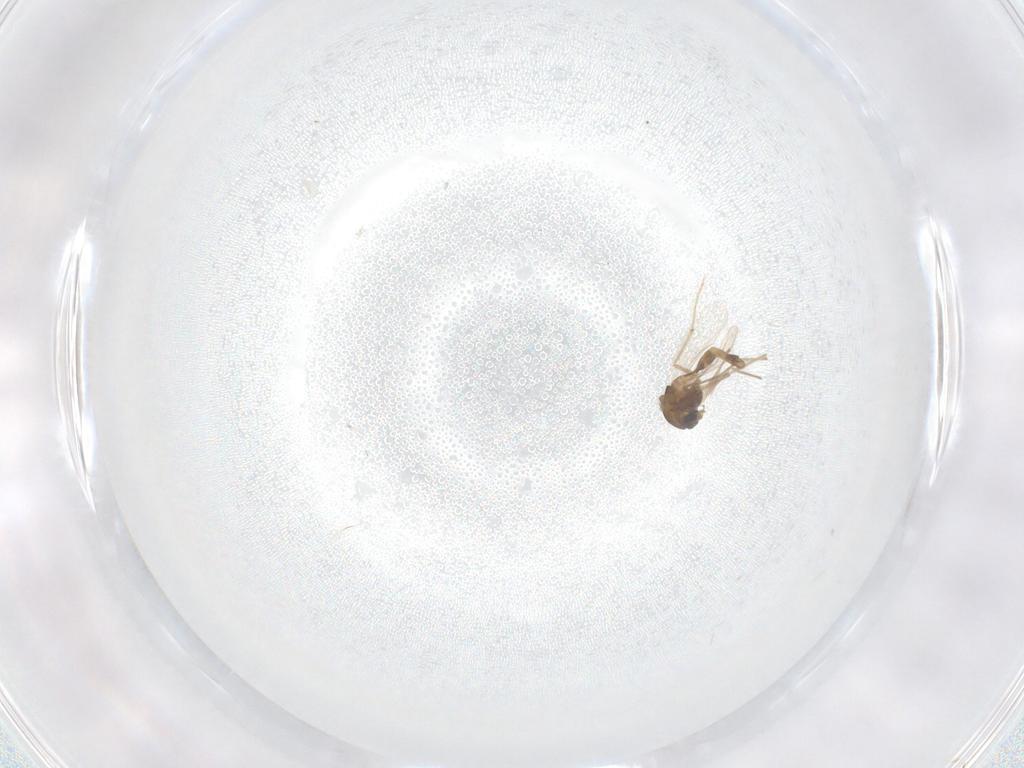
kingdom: Animalia
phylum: Arthropoda
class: Insecta
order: Diptera
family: Chironomidae
